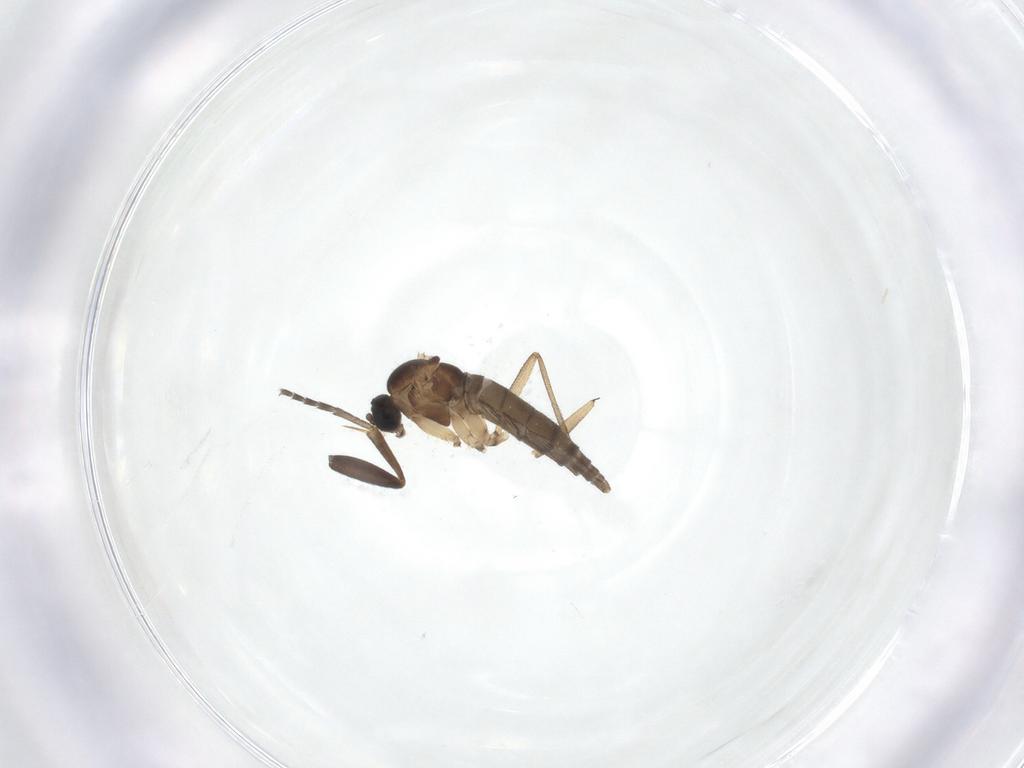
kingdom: Animalia
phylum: Arthropoda
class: Insecta
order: Diptera
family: Sciaridae
